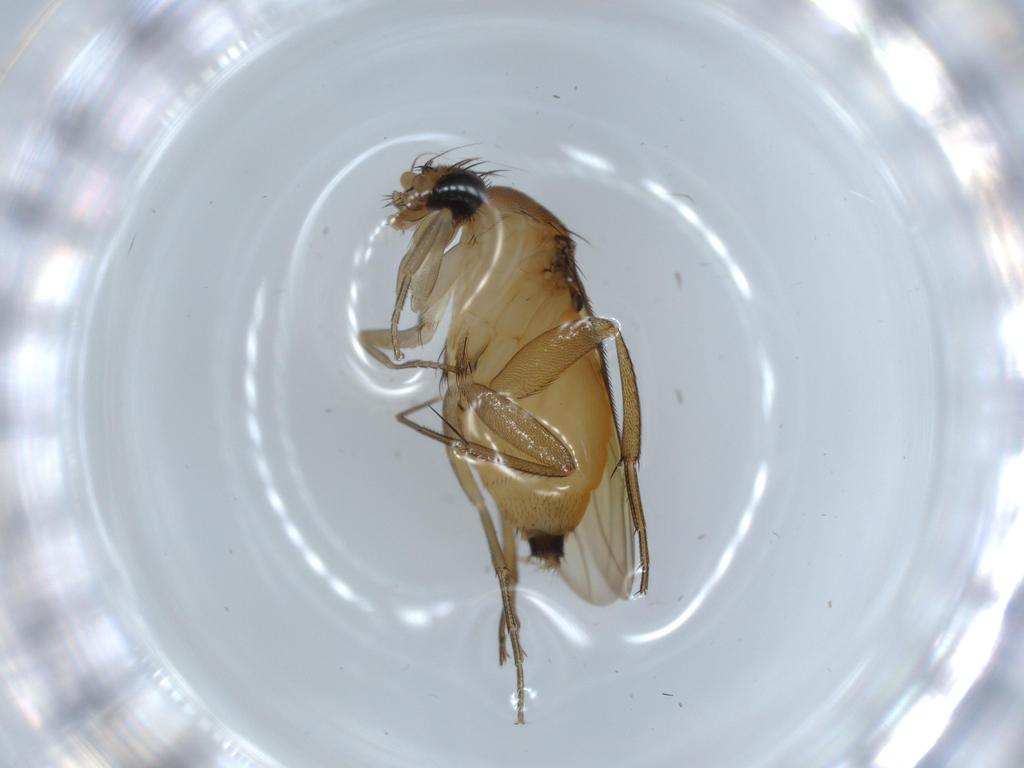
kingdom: Animalia
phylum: Arthropoda
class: Insecta
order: Diptera
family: Phoridae
